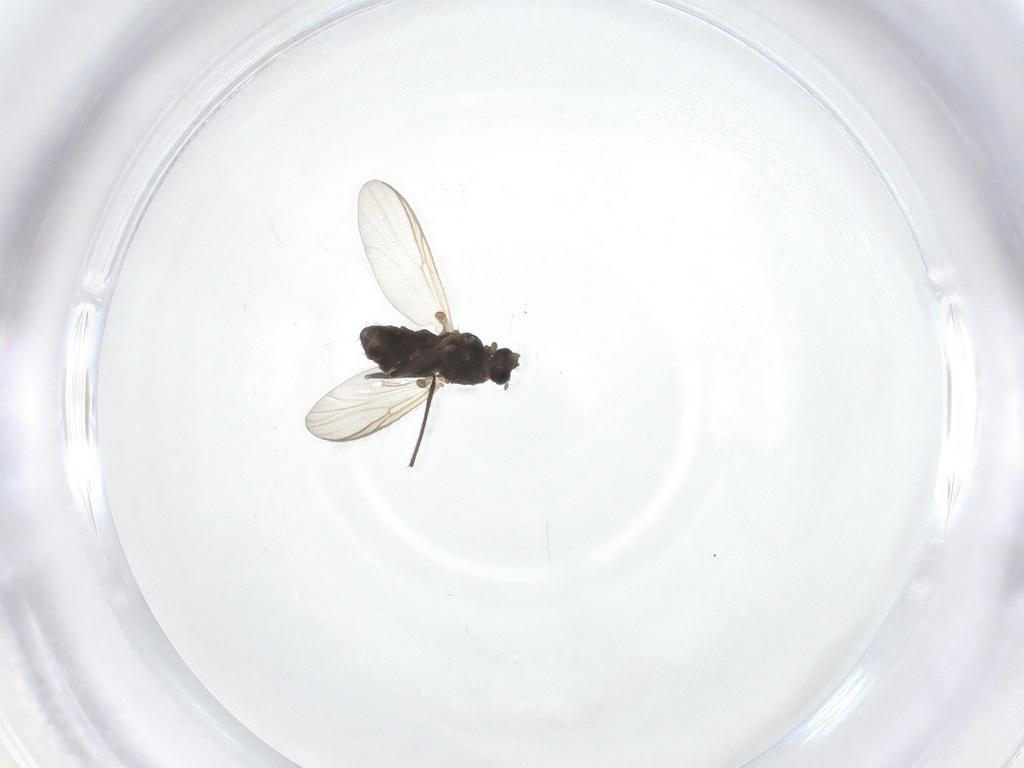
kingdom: Animalia
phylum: Arthropoda
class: Insecta
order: Diptera
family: Chironomidae
